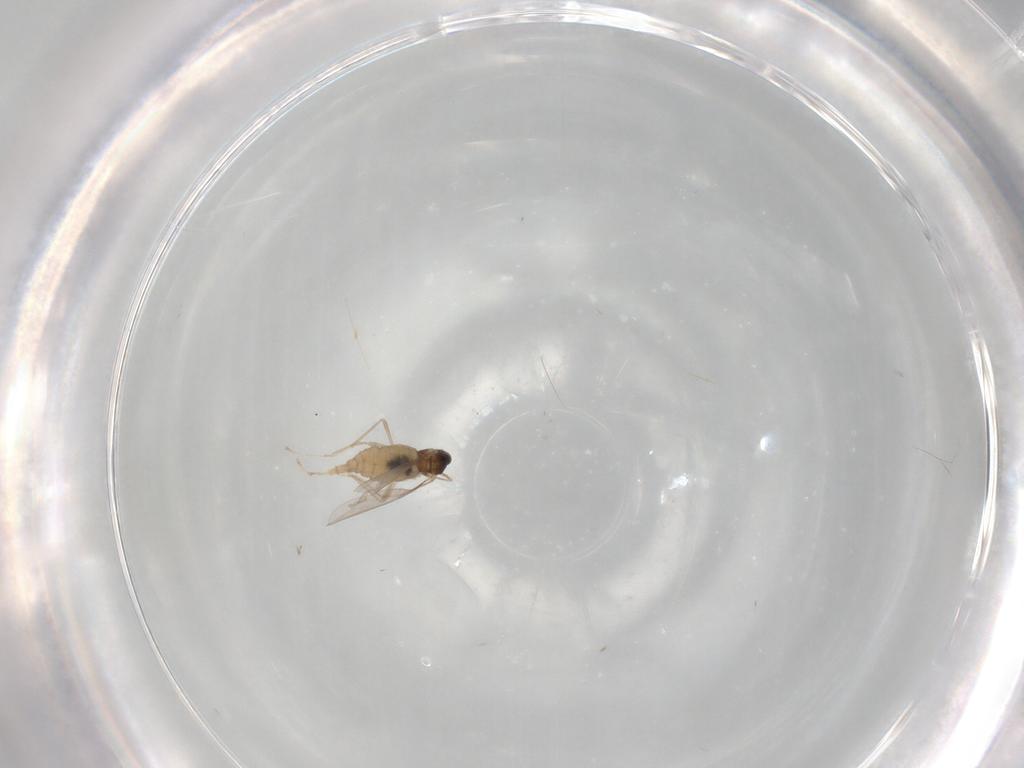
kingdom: Animalia
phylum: Arthropoda
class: Insecta
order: Diptera
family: Cecidomyiidae
